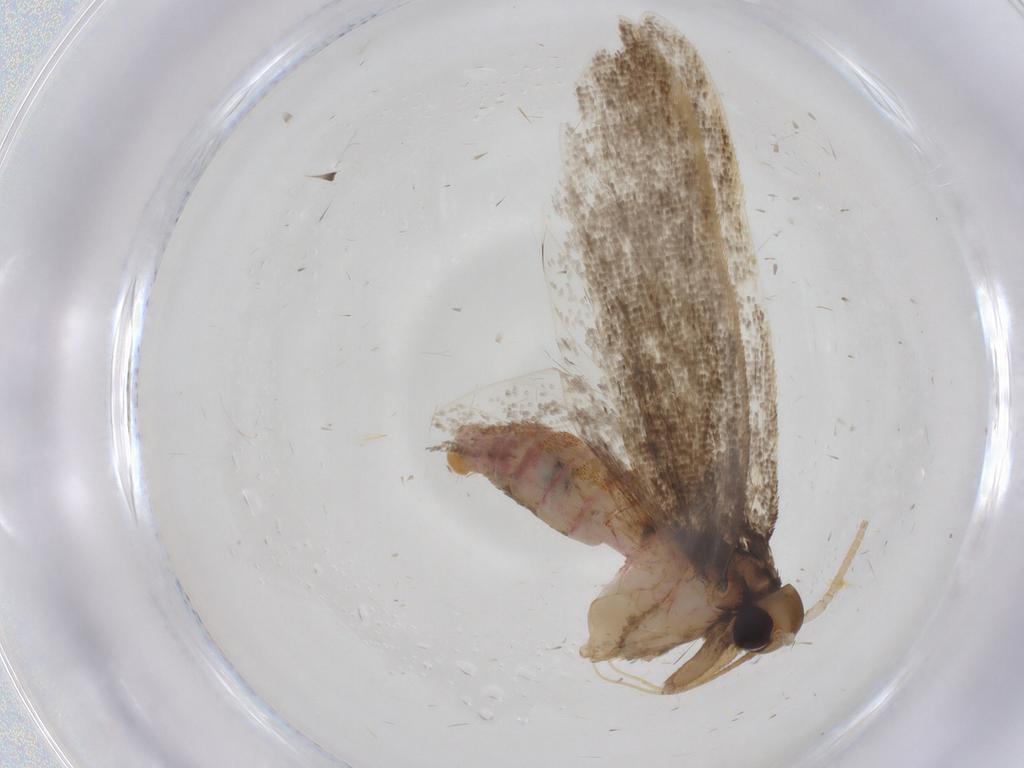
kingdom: Animalia
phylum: Arthropoda
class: Insecta
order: Lepidoptera
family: Lecithoceridae
